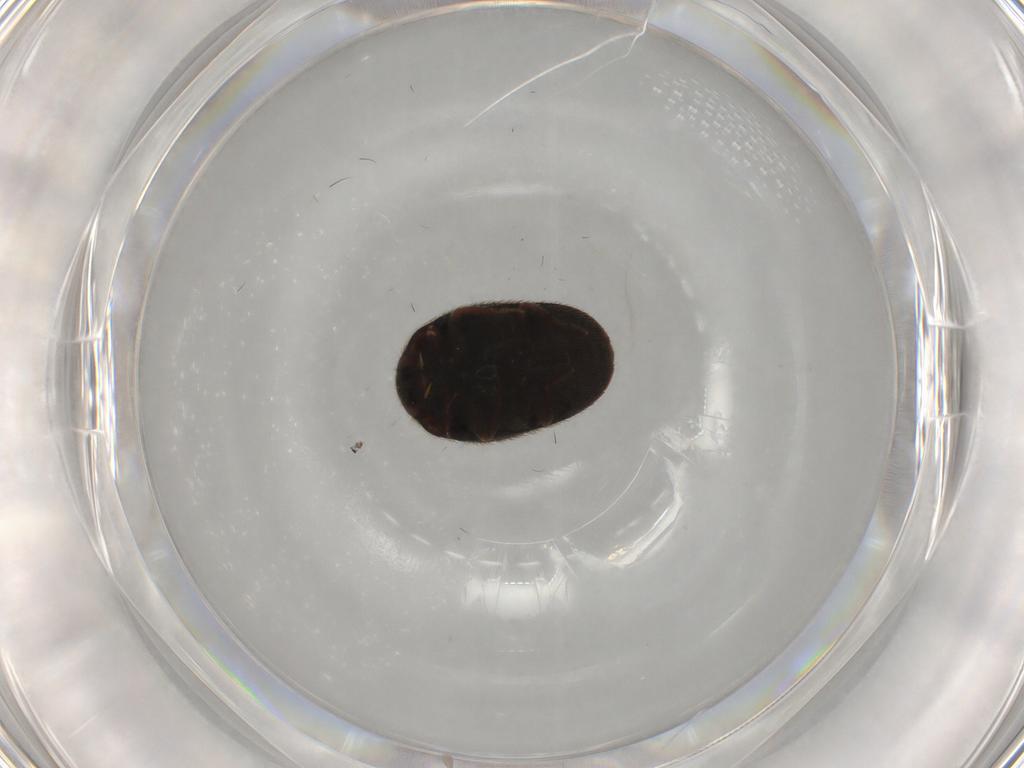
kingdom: Animalia
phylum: Arthropoda
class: Insecta
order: Coleoptera
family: Dermestidae
